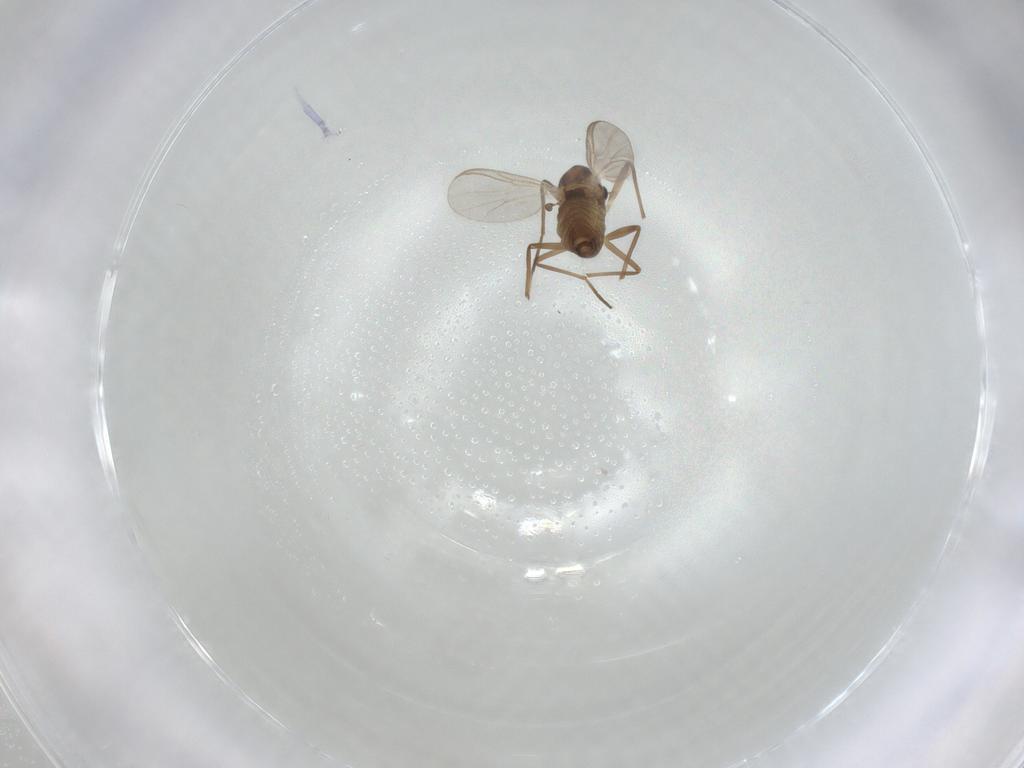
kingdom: Animalia
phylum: Arthropoda
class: Insecta
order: Diptera
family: Chironomidae
